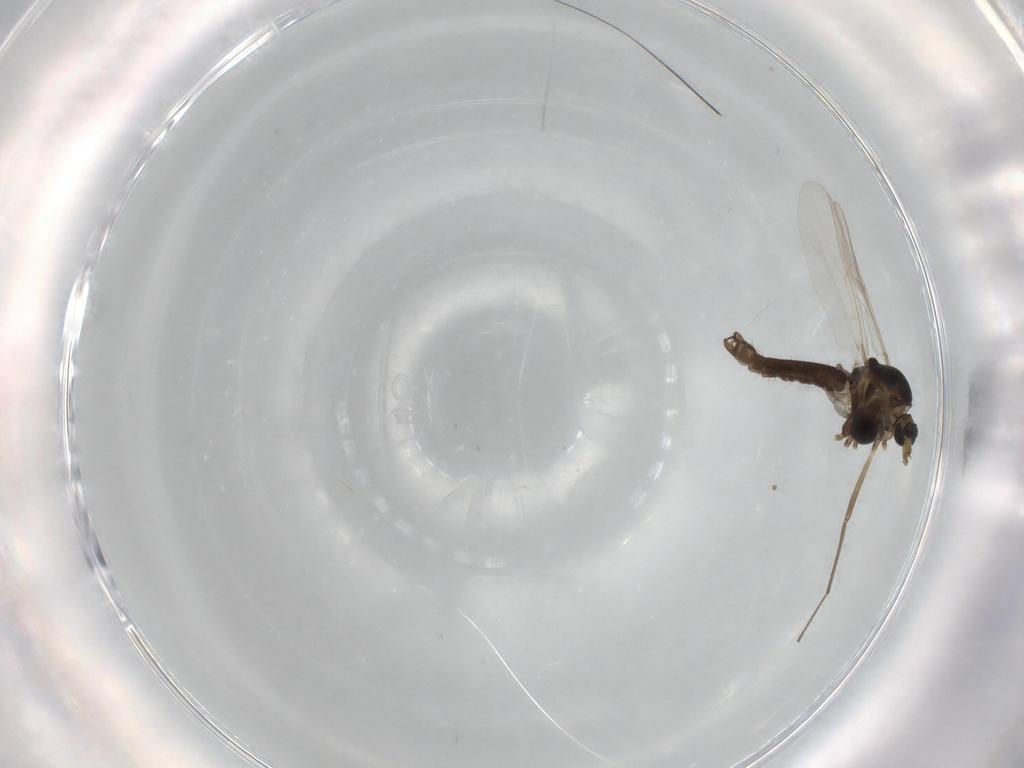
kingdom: Animalia
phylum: Arthropoda
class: Insecta
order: Diptera
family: Chironomidae
